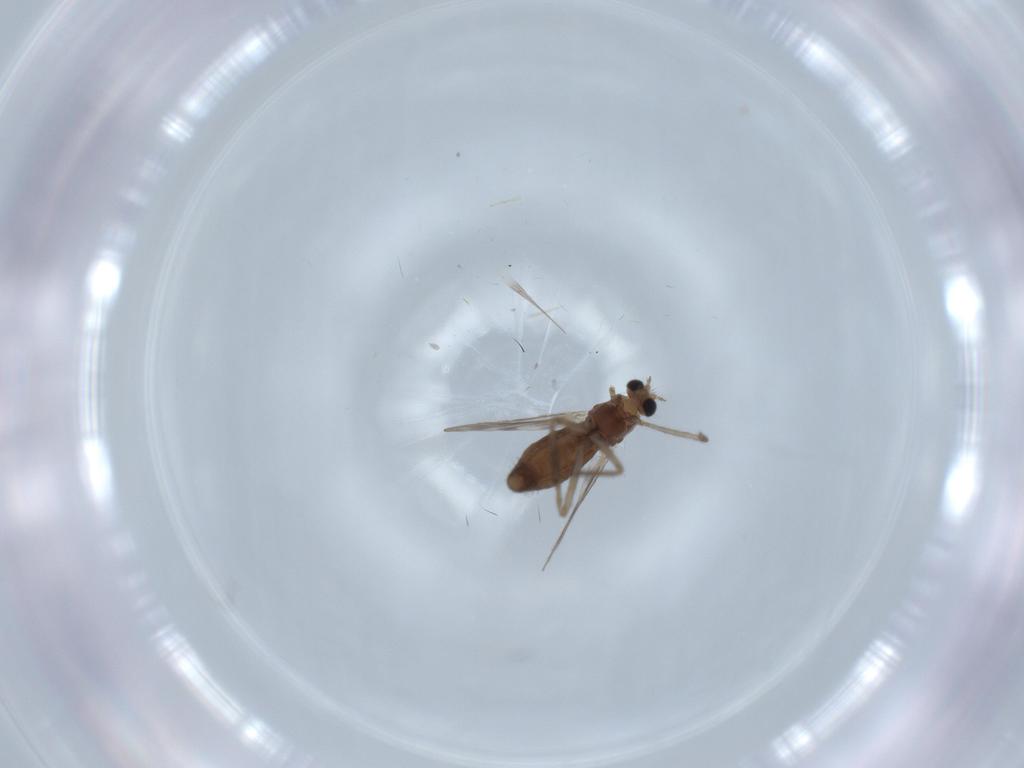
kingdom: Animalia
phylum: Arthropoda
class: Insecta
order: Diptera
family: Chironomidae
